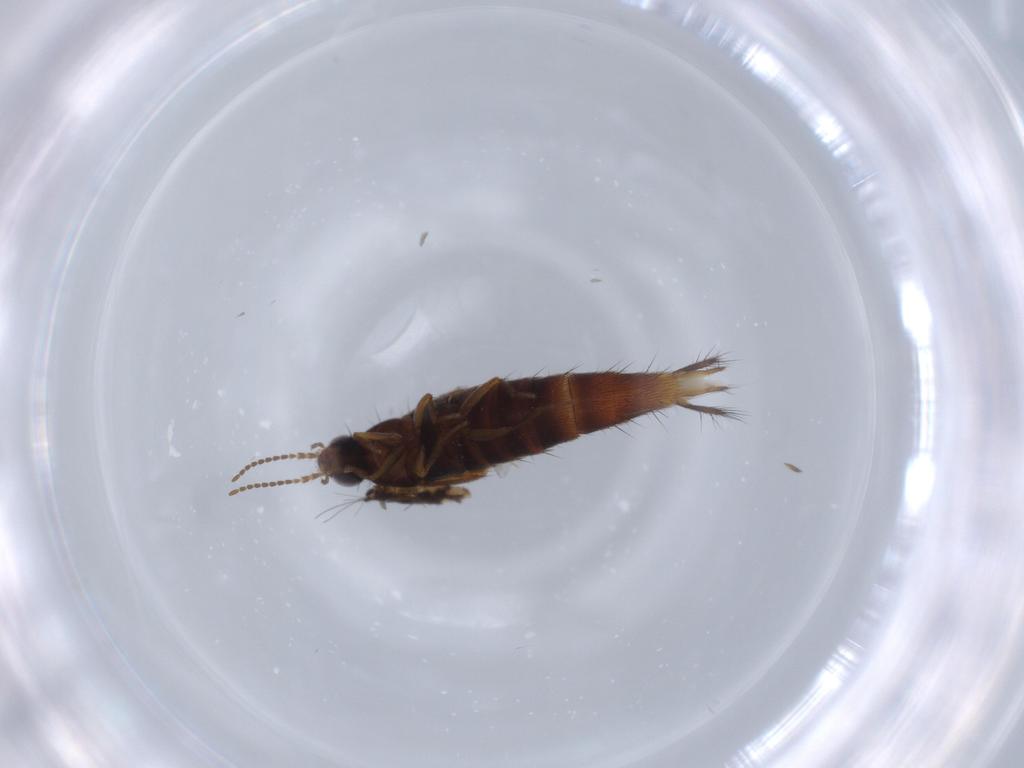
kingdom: Animalia
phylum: Arthropoda
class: Insecta
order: Coleoptera
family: Staphylinidae
